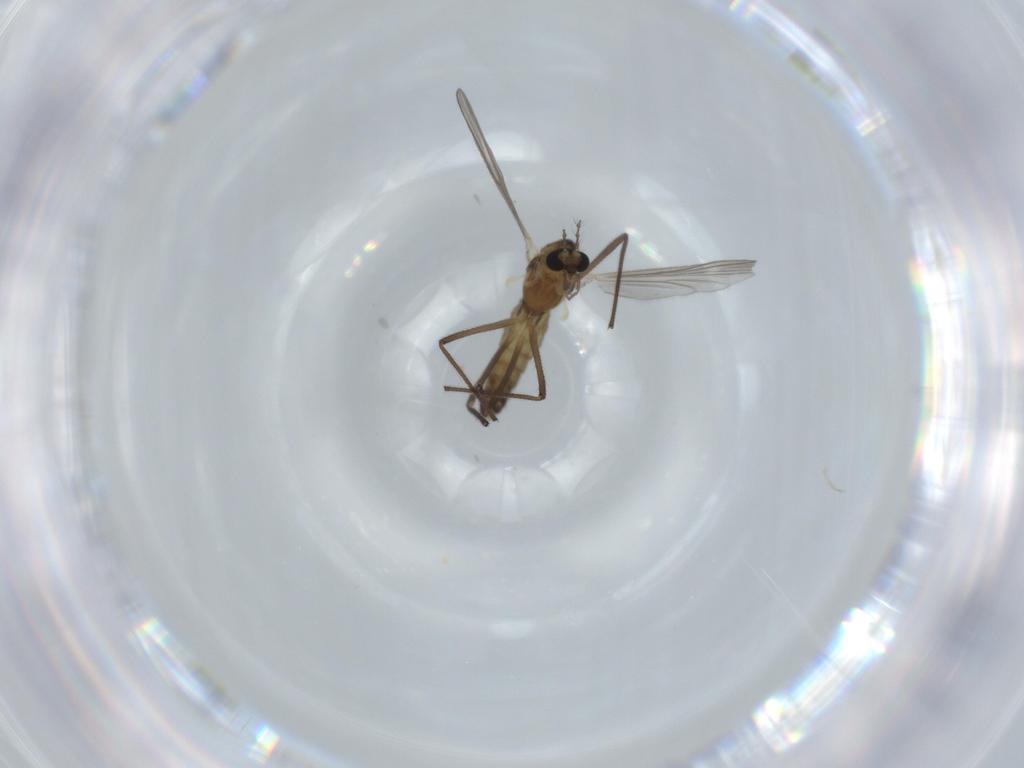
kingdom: Animalia
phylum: Arthropoda
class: Insecta
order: Diptera
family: Chironomidae
